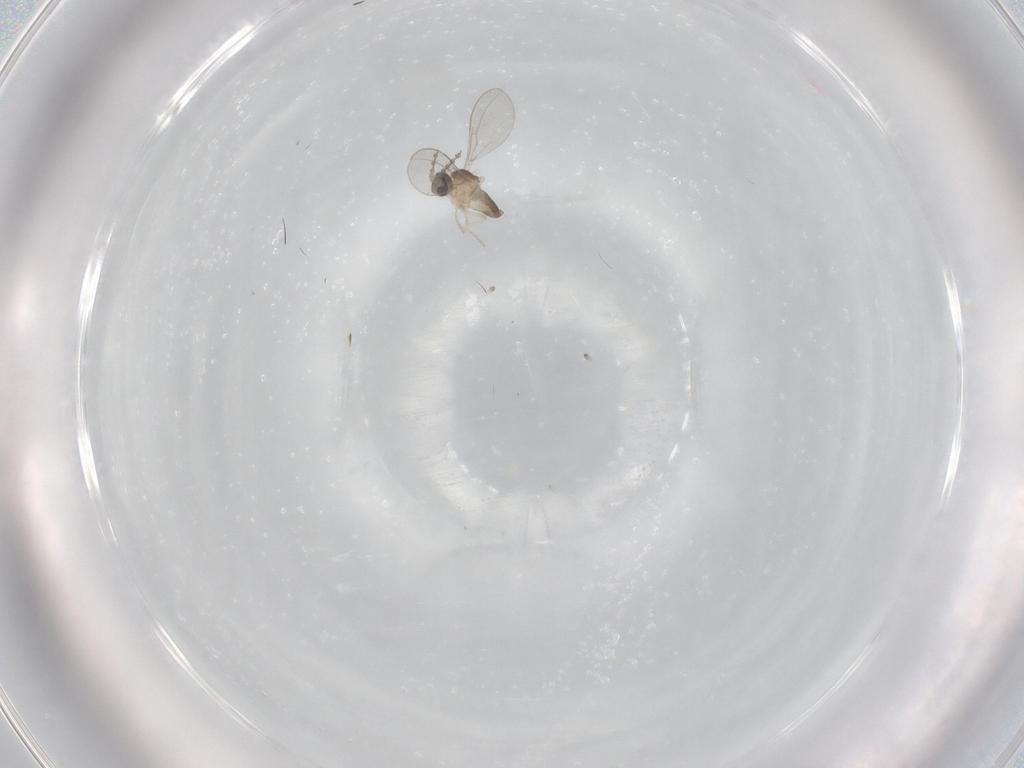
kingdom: Animalia
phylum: Arthropoda
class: Insecta
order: Diptera
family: Cecidomyiidae
